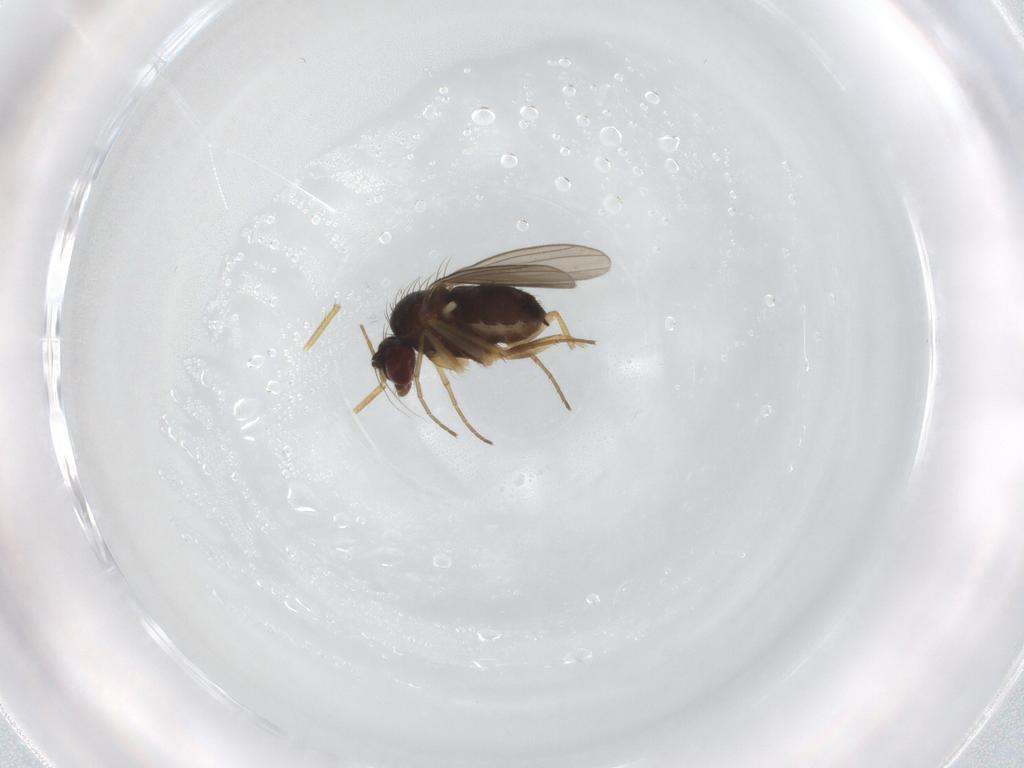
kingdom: Animalia
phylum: Arthropoda
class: Insecta
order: Diptera
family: Dolichopodidae
